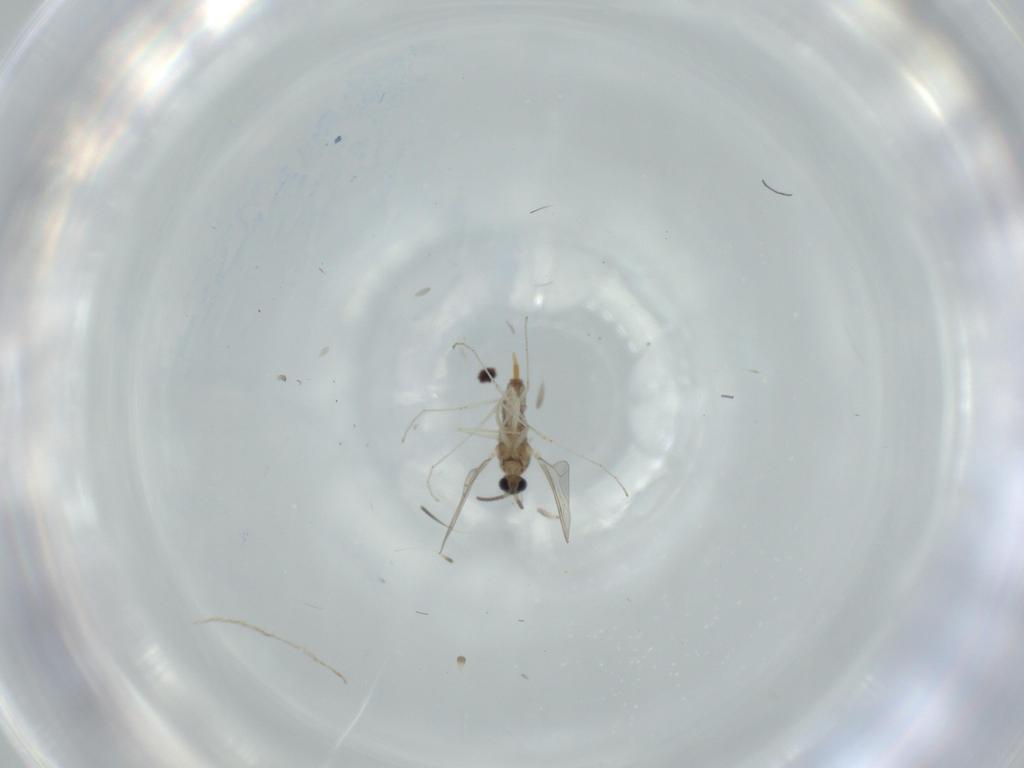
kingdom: Animalia
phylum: Arthropoda
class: Insecta
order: Diptera
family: Cecidomyiidae
